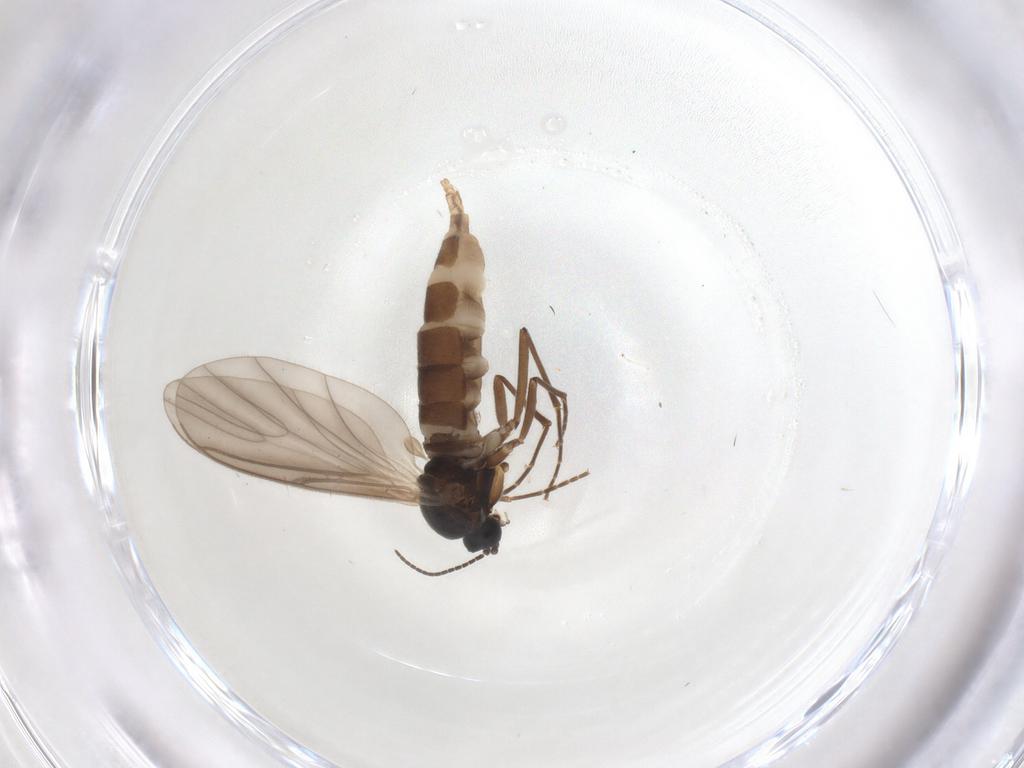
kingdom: Animalia
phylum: Arthropoda
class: Insecta
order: Diptera
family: Sciaridae
